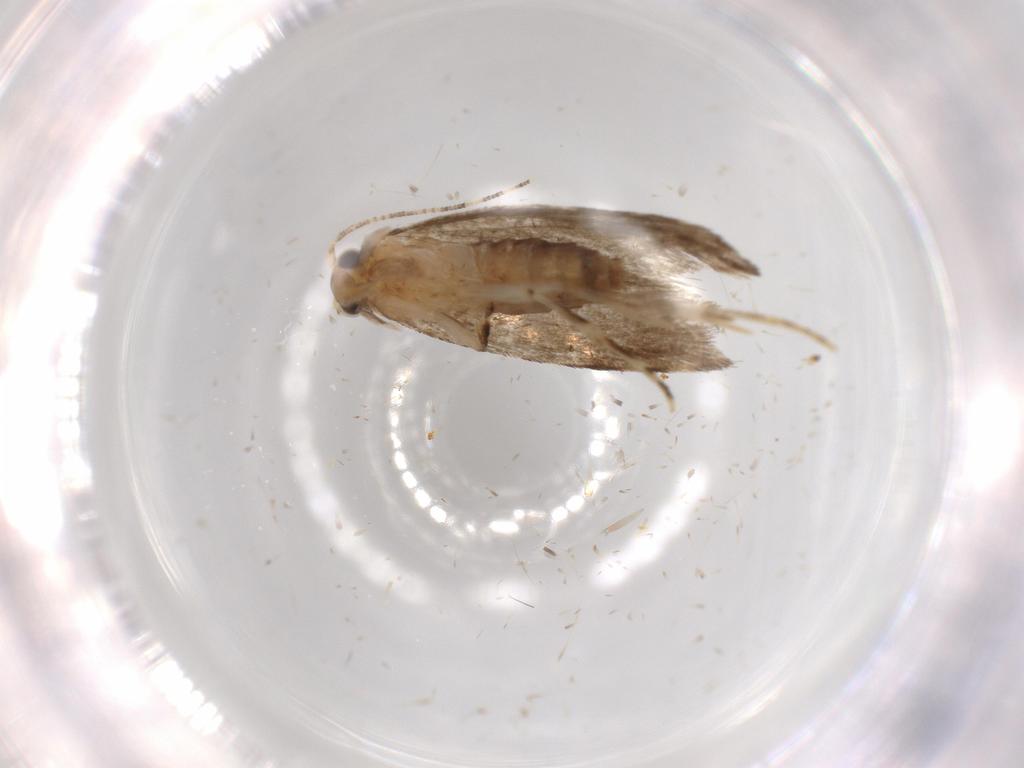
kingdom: Animalia
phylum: Arthropoda
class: Insecta
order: Lepidoptera
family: Tineidae
